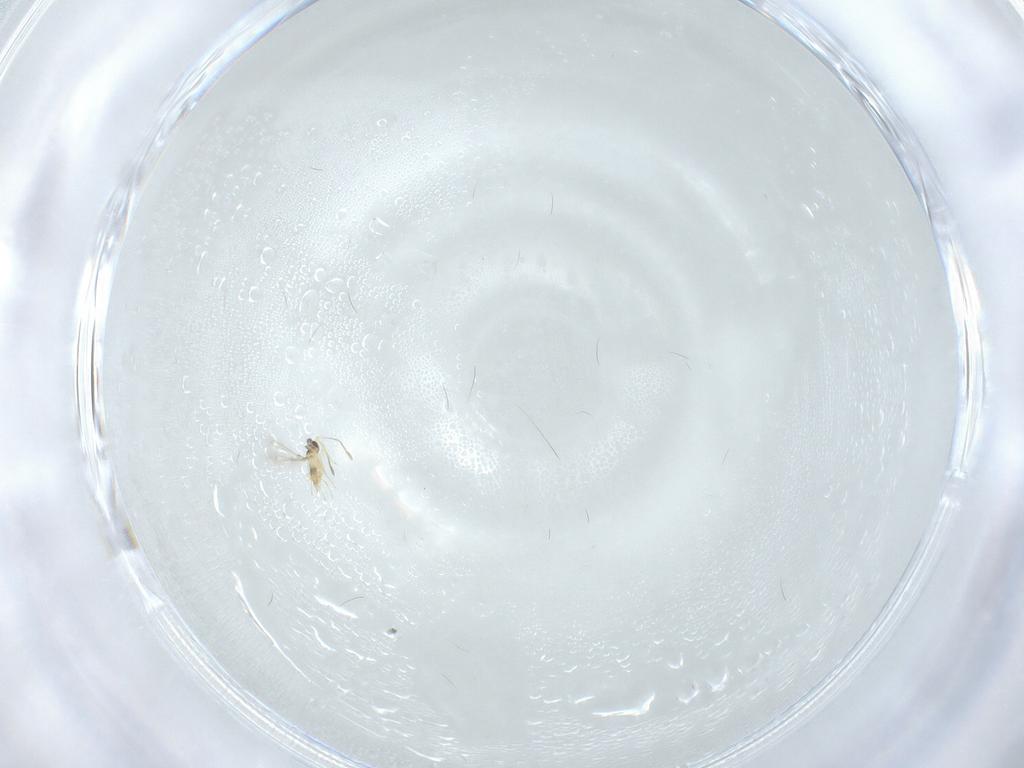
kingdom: Animalia
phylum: Arthropoda
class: Insecta
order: Hymenoptera
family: Mymaridae
